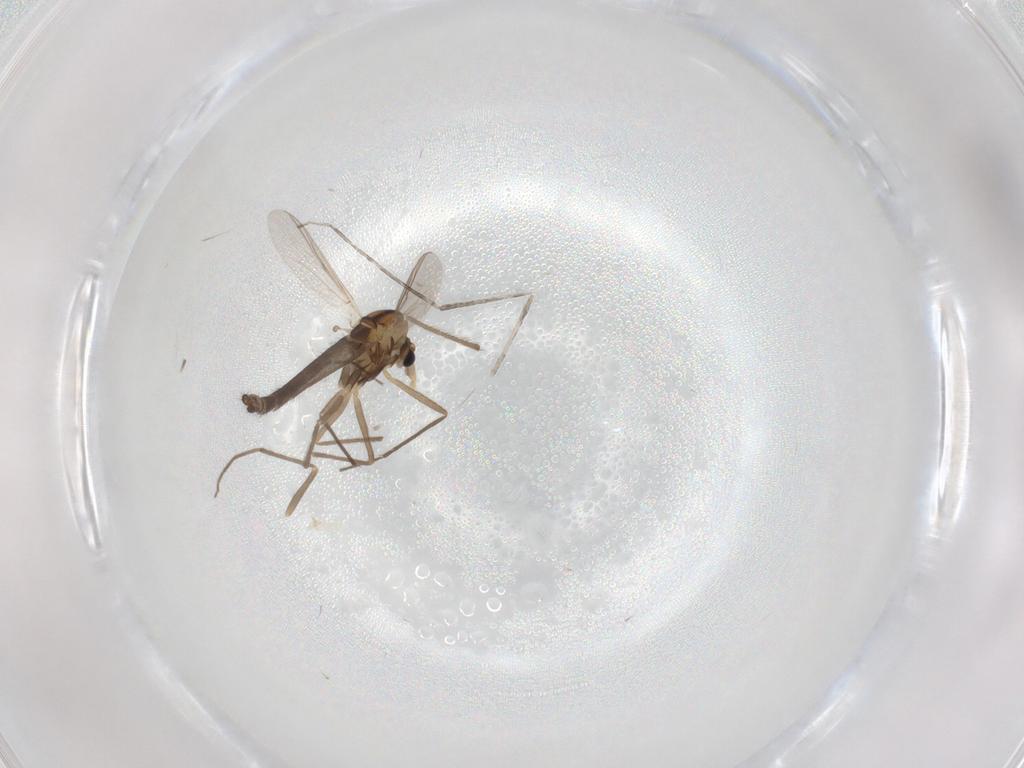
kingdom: Animalia
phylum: Arthropoda
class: Insecta
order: Diptera
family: Chironomidae
